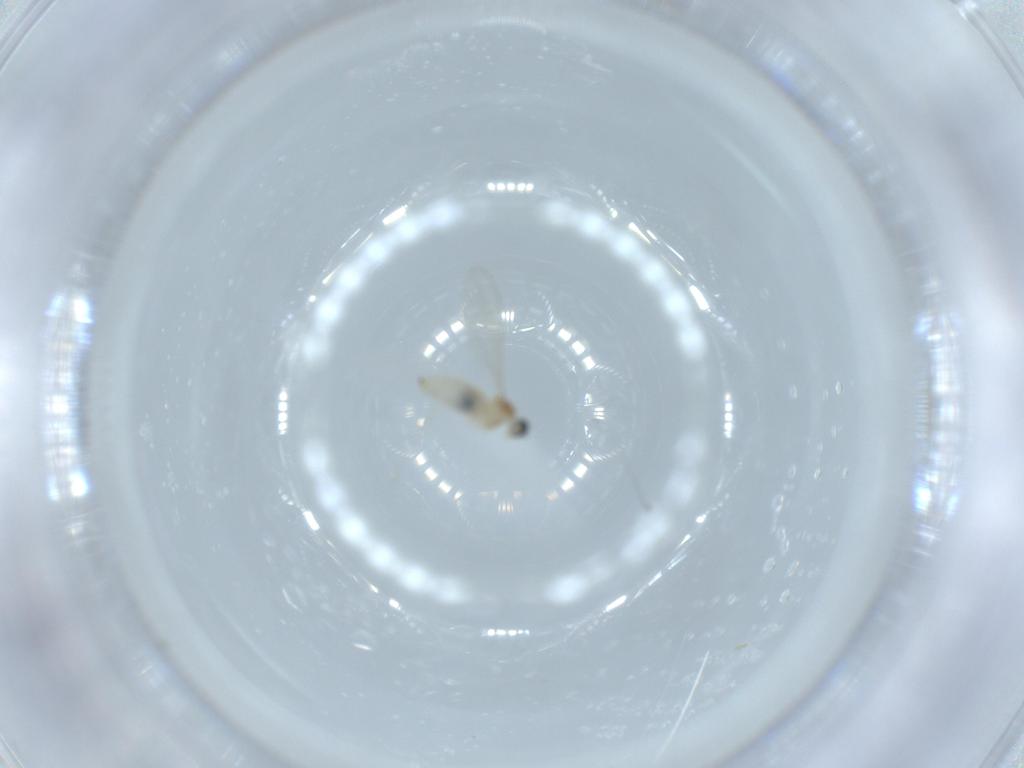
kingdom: Animalia
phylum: Arthropoda
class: Insecta
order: Diptera
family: Cecidomyiidae
